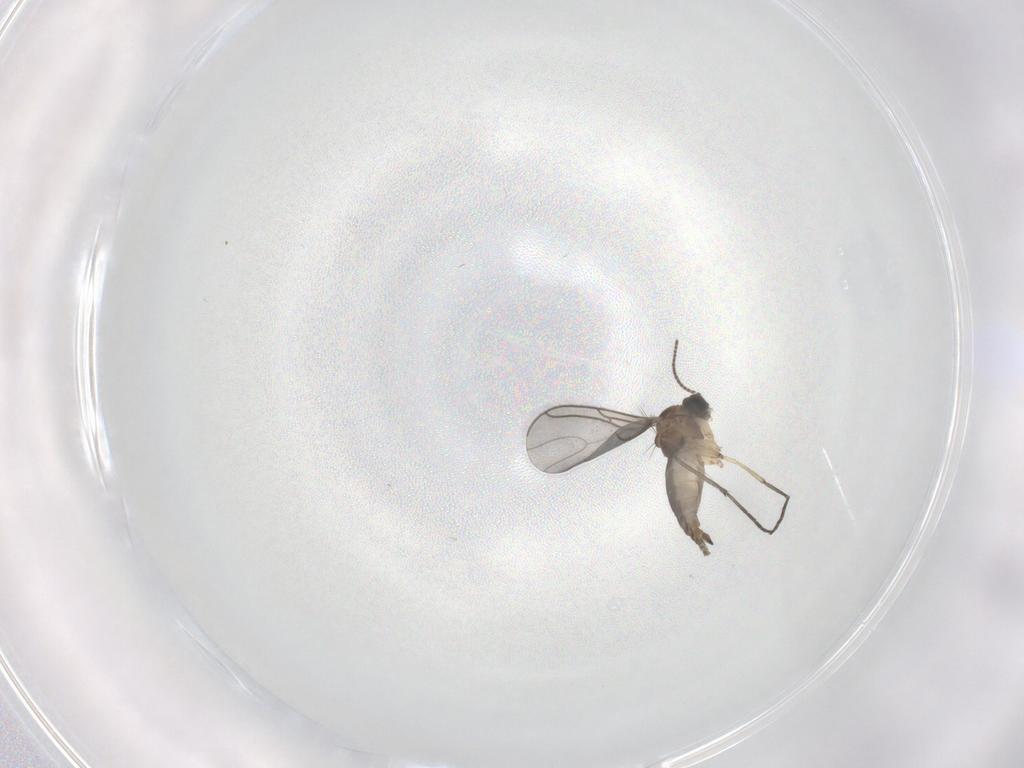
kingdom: Animalia
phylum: Arthropoda
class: Insecta
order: Diptera
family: Sciaridae
